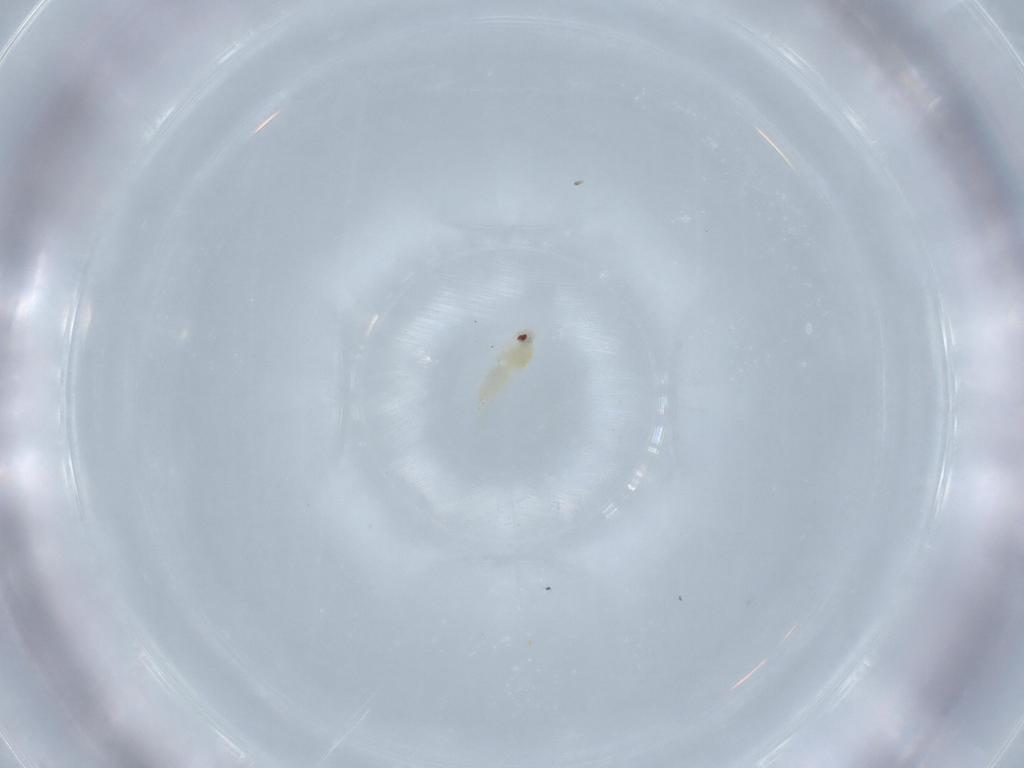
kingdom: Animalia
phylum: Arthropoda
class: Insecta
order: Hemiptera
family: Aleyrodidae
